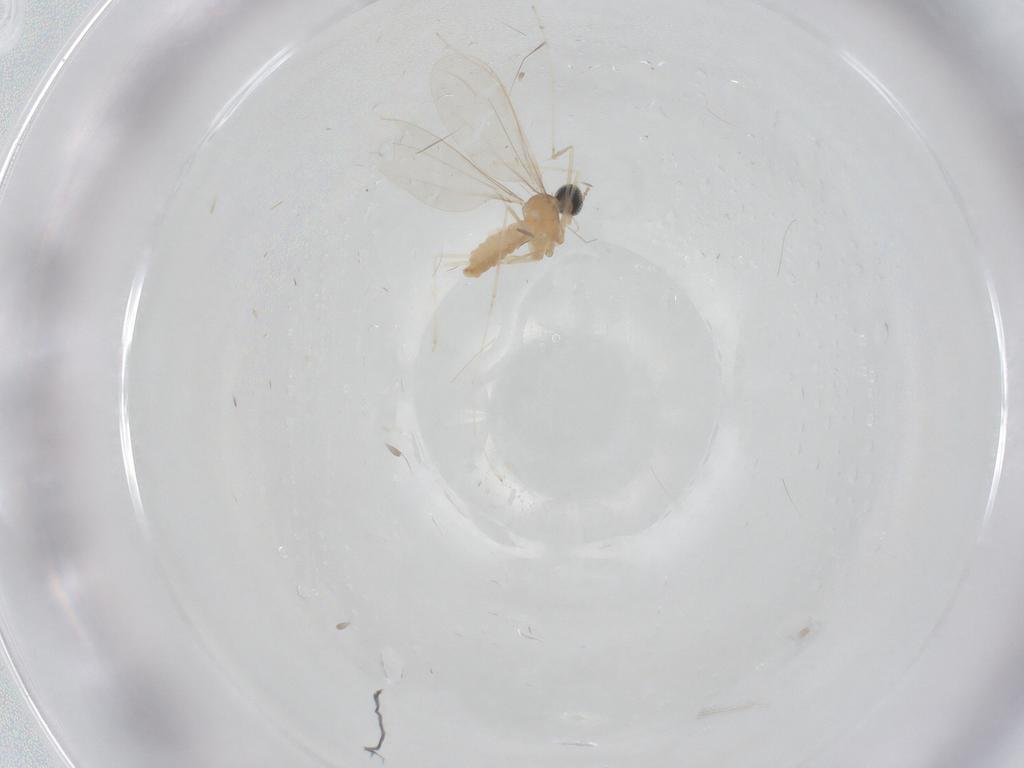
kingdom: Animalia
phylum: Arthropoda
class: Insecta
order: Diptera
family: Cecidomyiidae
